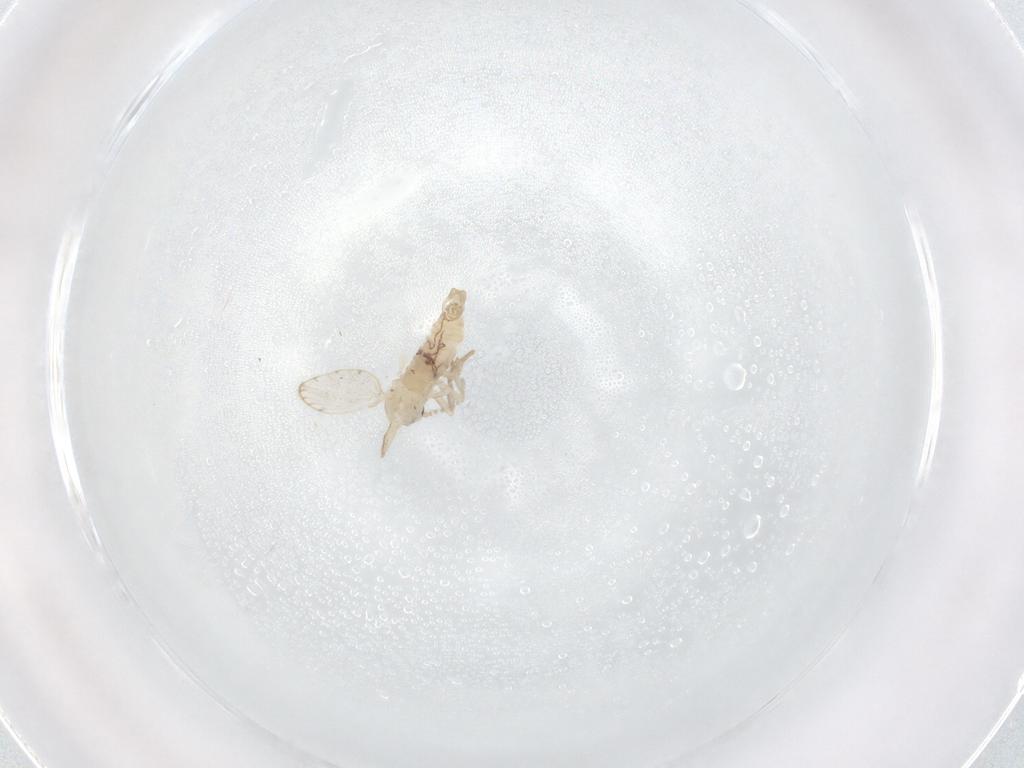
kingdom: Animalia
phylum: Arthropoda
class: Insecta
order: Diptera
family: Psychodidae
